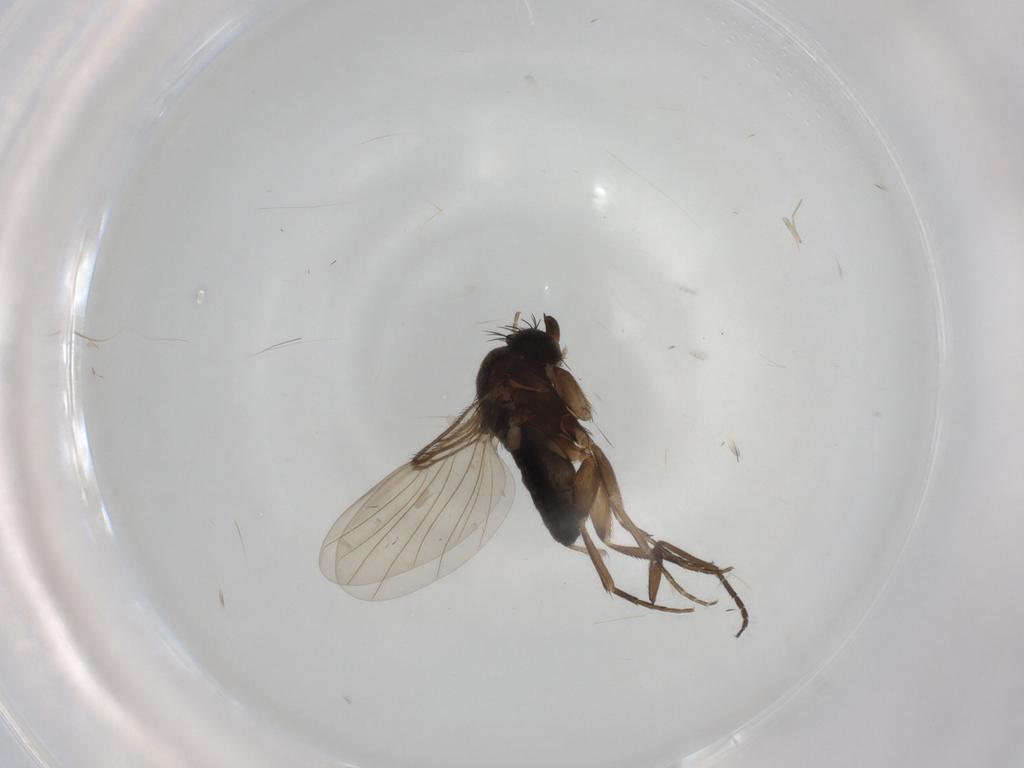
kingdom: Animalia
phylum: Arthropoda
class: Insecta
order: Diptera
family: Phoridae
